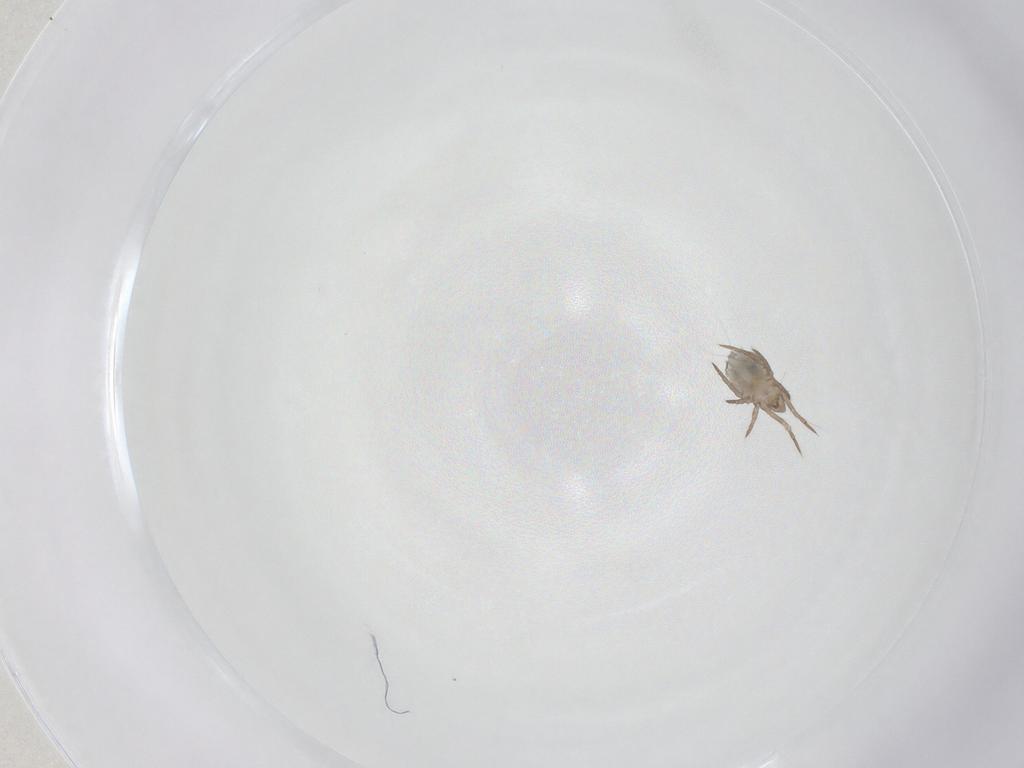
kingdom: Animalia
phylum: Arthropoda
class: Arachnida
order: Sarcoptiformes
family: Ceratoppiidae
